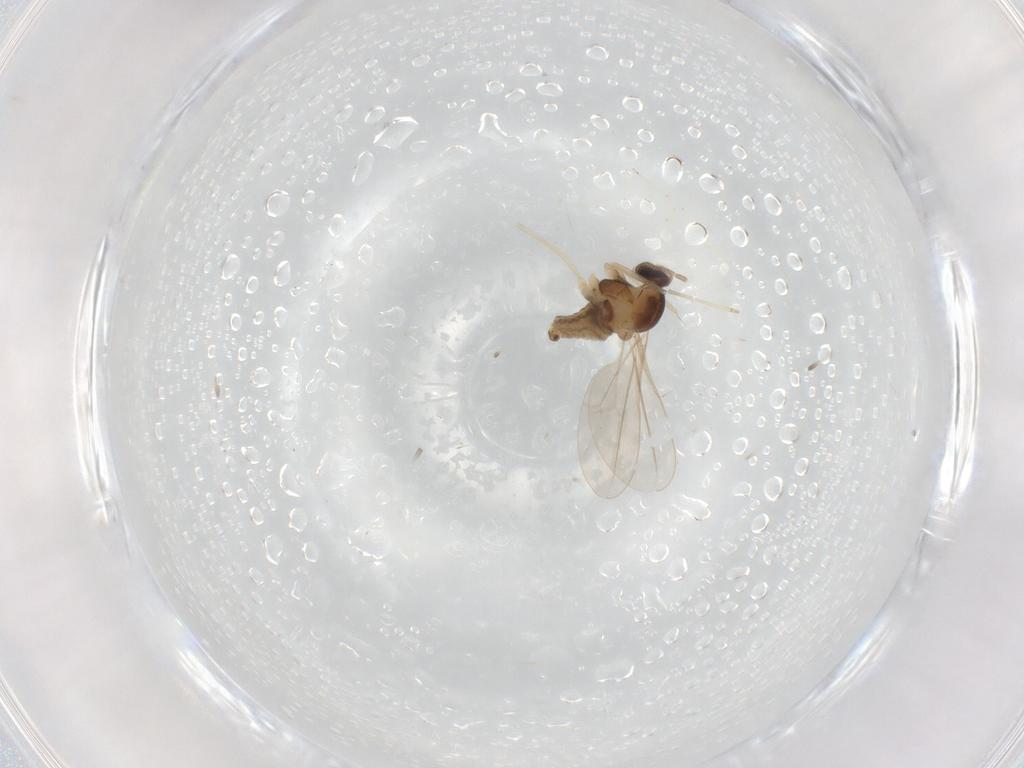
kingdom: Animalia
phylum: Arthropoda
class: Insecta
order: Diptera
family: Cecidomyiidae
